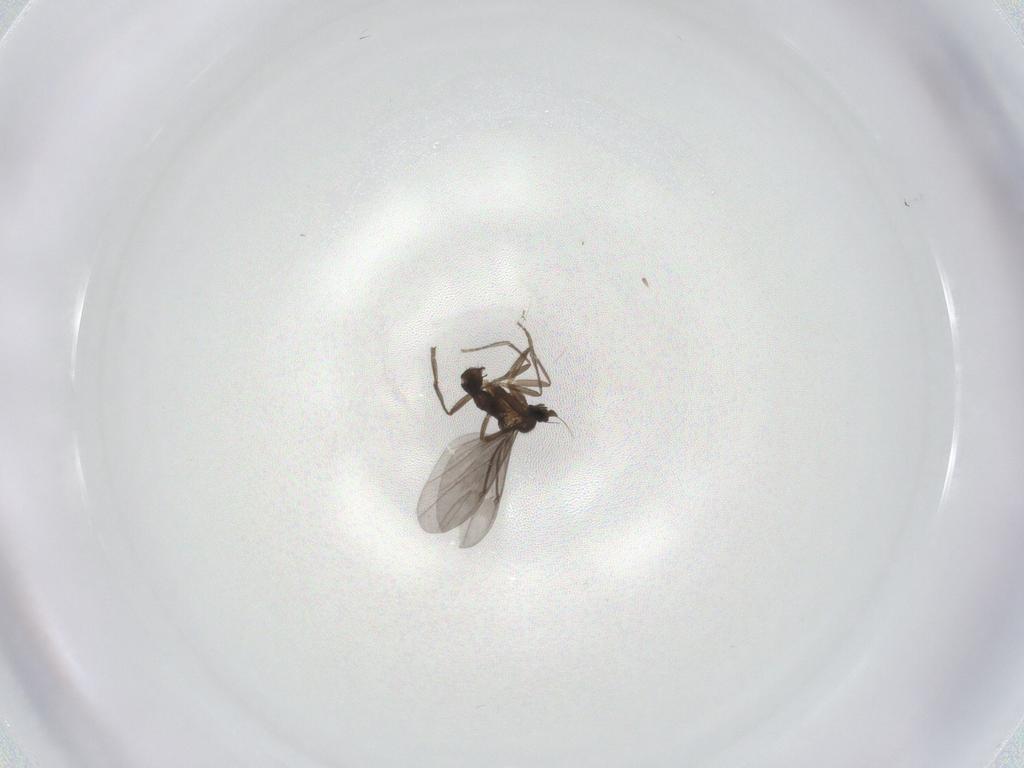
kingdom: Animalia
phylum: Arthropoda
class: Insecta
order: Diptera
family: Phoridae
